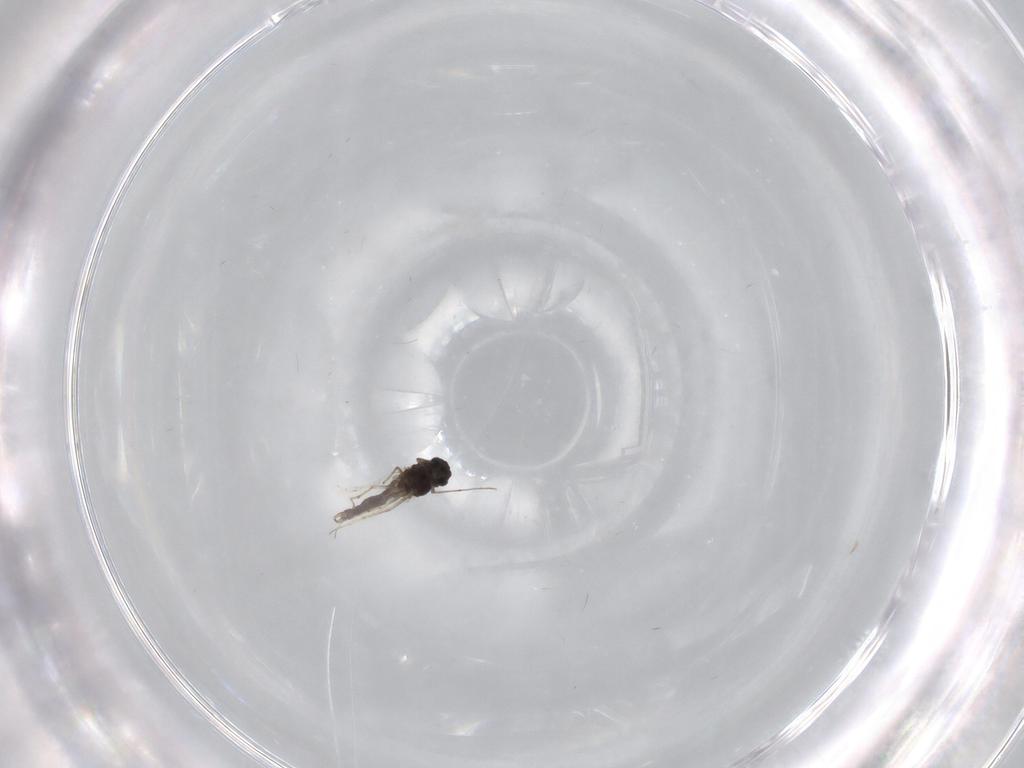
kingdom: Animalia
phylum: Arthropoda
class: Insecta
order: Diptera
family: Chironomidae
